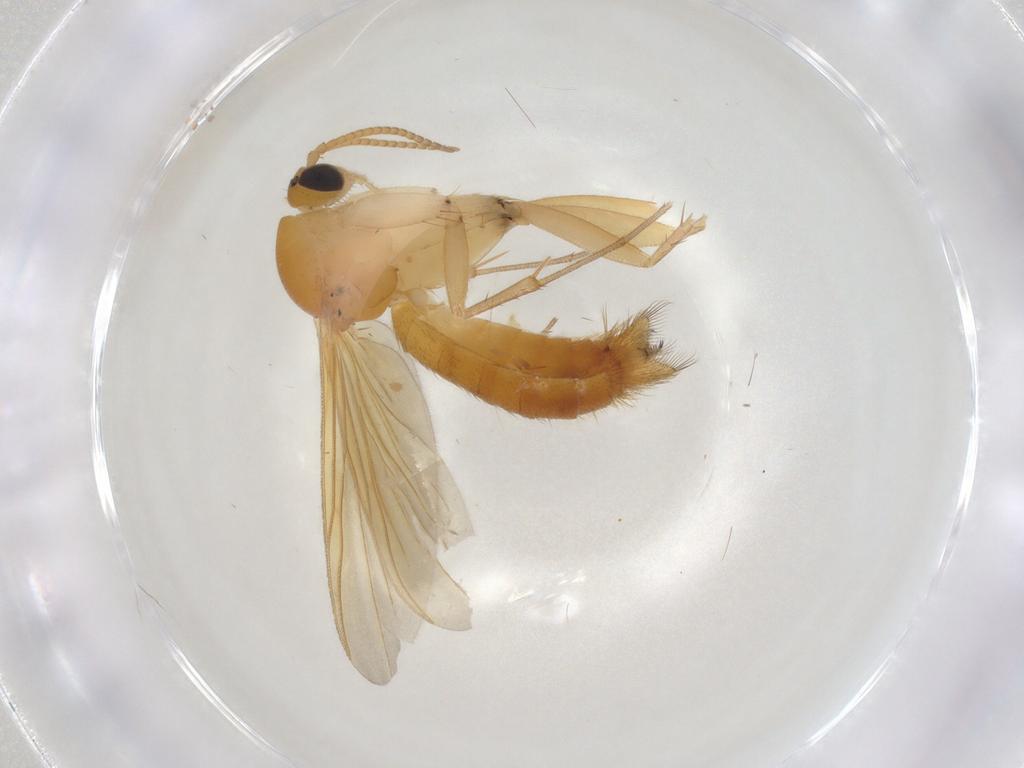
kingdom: Animalia
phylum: Arthropoda
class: Insecta
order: Diptera
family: Mycetophilidae
